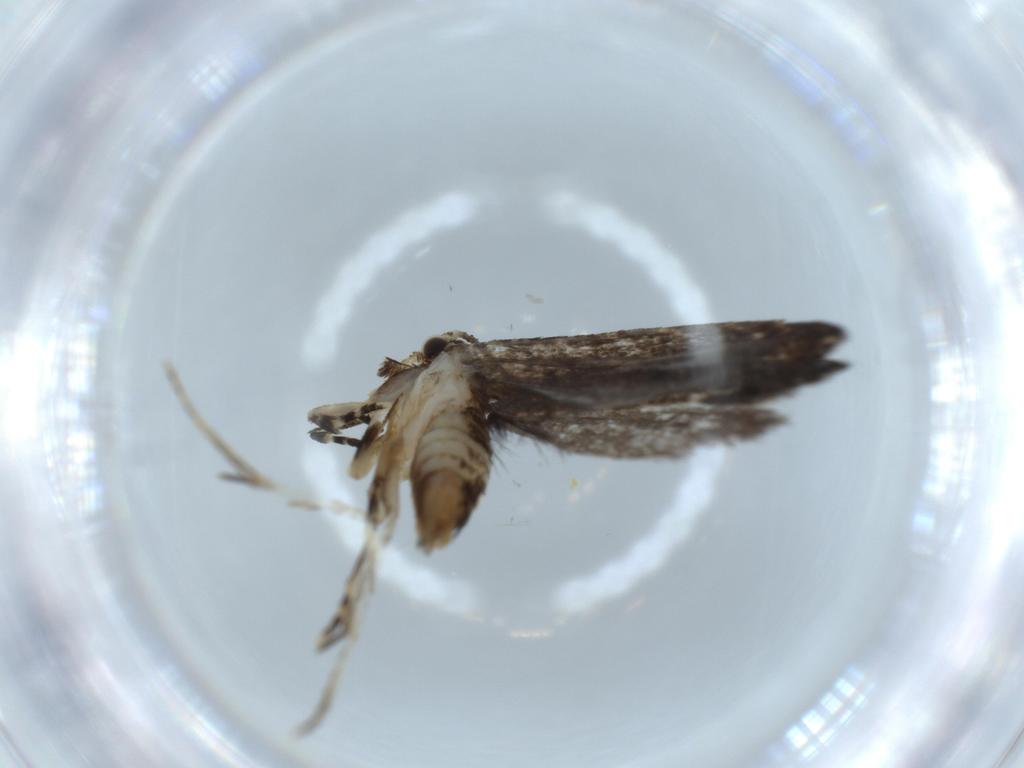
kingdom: Animalia
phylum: Arthropoda
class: Insecta
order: Lepidoptera
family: Tineidae
